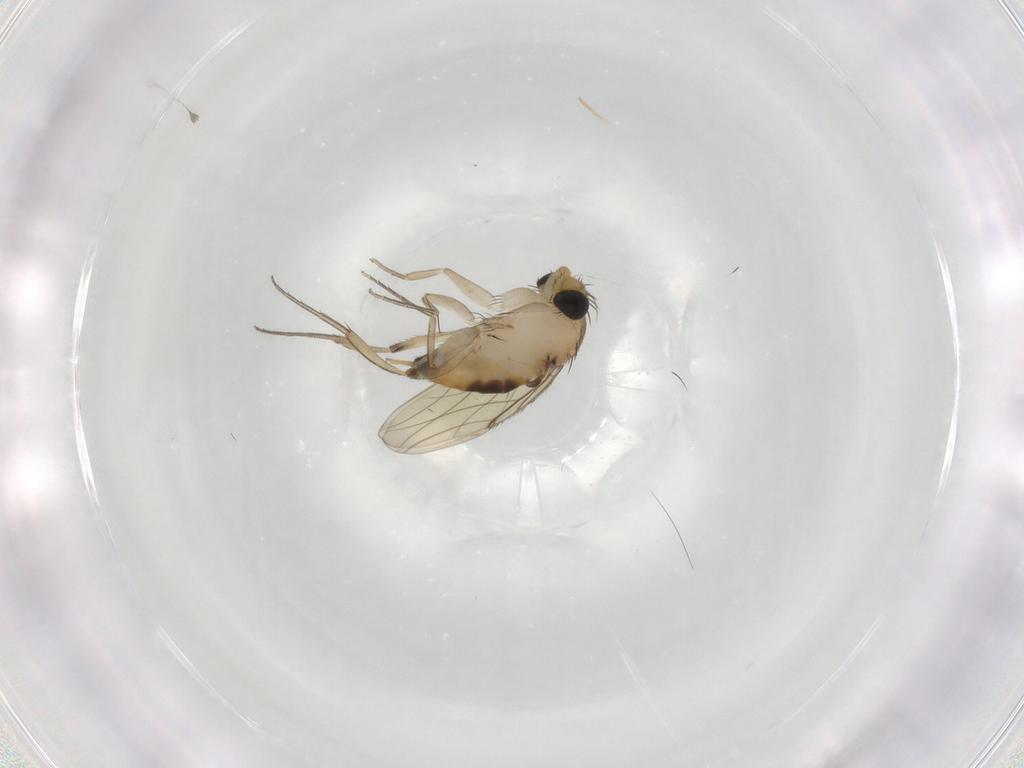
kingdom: Animalia
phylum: Arthropoda
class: Insecta
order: Diptera
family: Phoridae
